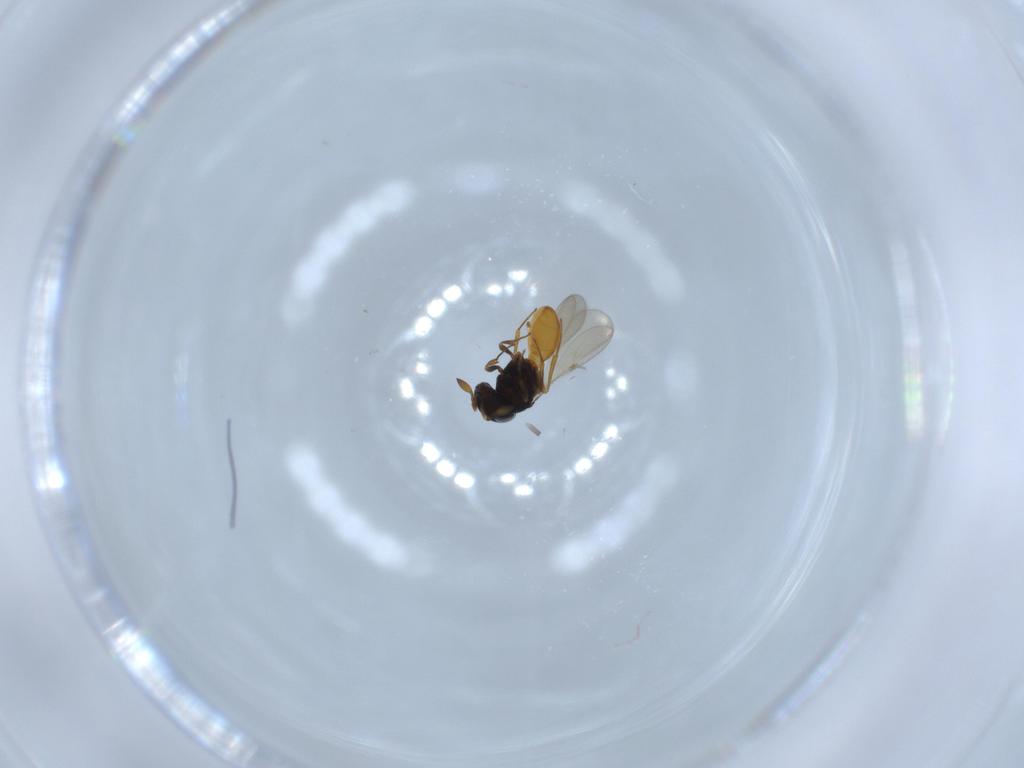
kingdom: Animalia
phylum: Arthropoda
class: Insecta
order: Hymenoptera
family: Scelionidae
